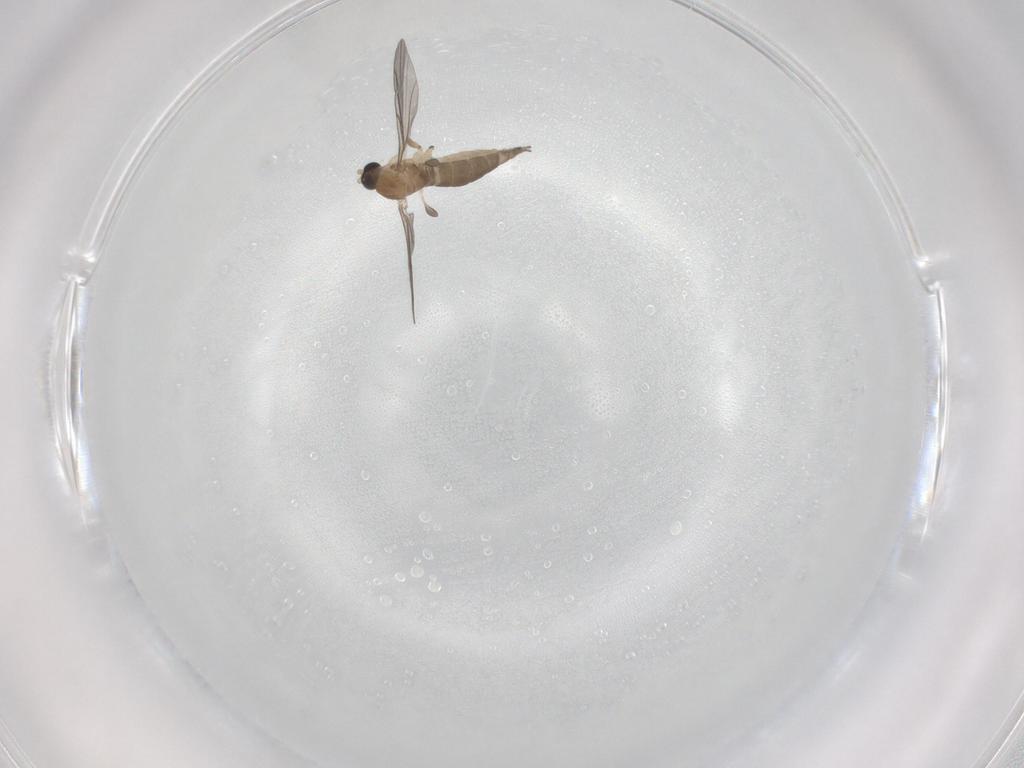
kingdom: Animalia
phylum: Arthropoda
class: Insecta
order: Diptera
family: Sciaridae
